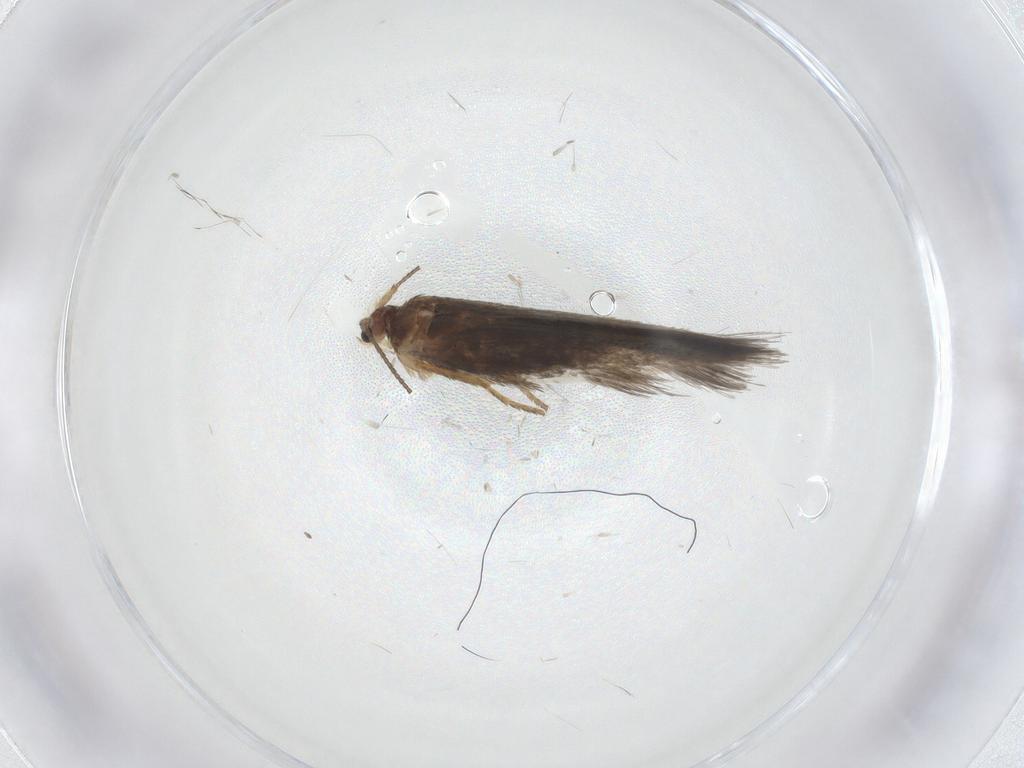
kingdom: Animalia
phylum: Arthropoda
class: Insecta
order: Lepidoptera
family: Nepticulidae
